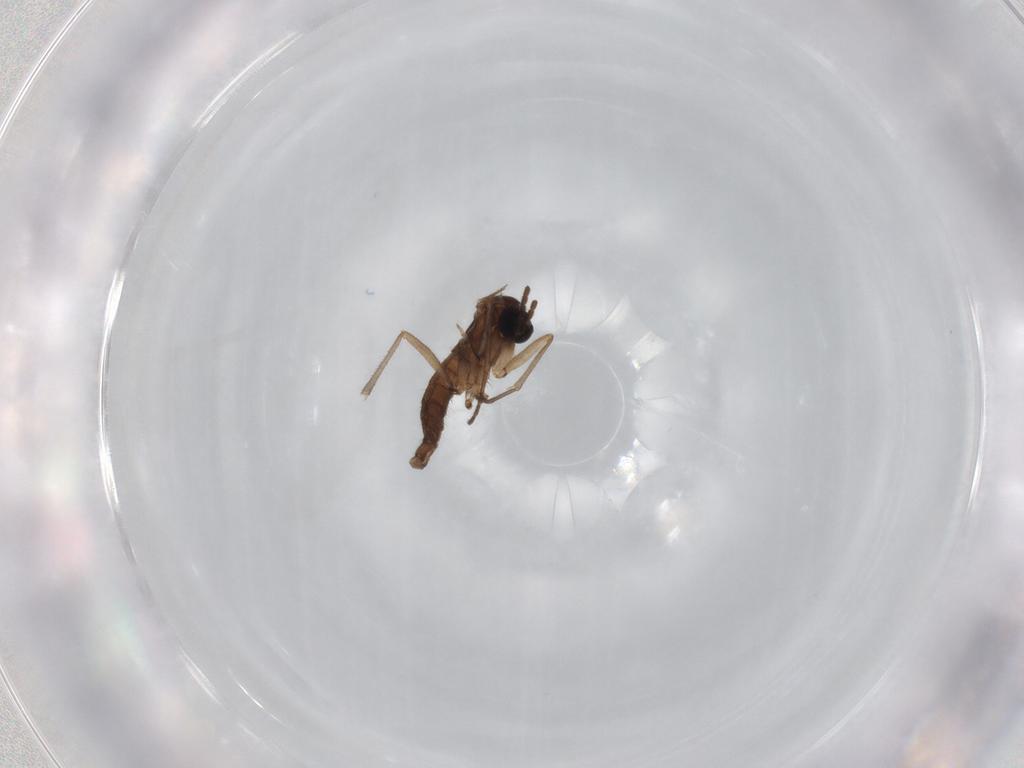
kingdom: Animalia
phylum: Arthropoda
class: Insecta
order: Diptera
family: Sciaridae
